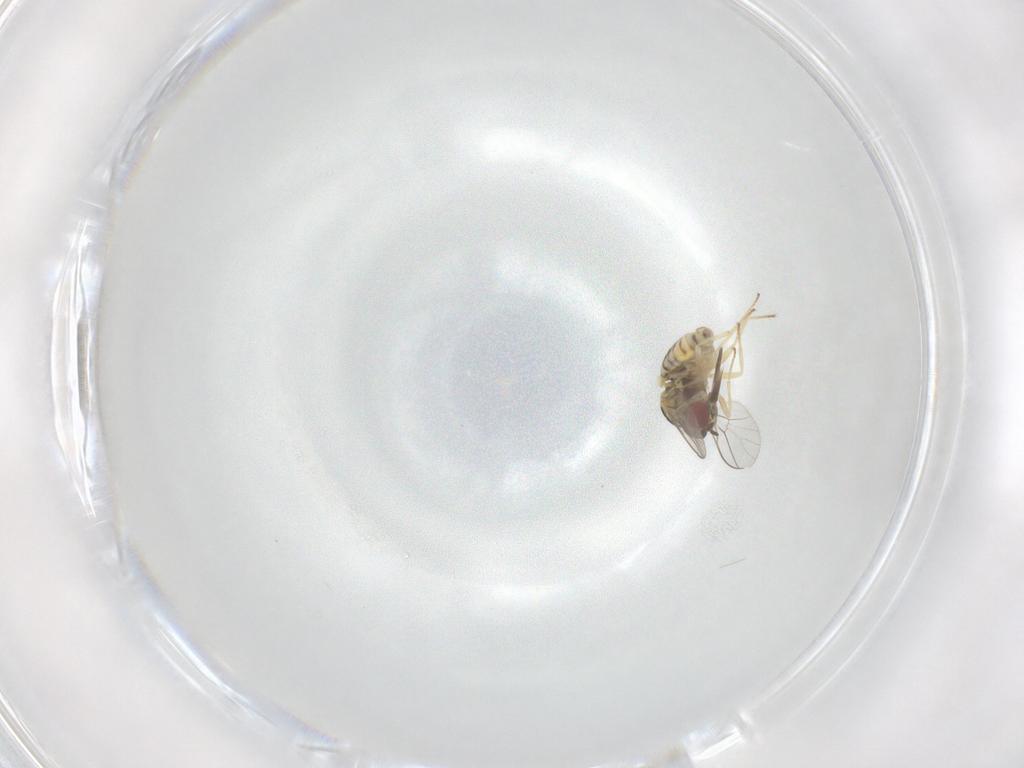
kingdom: Animalia
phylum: Arthropoda
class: Insecta
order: Diptera
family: Bombyliidae
